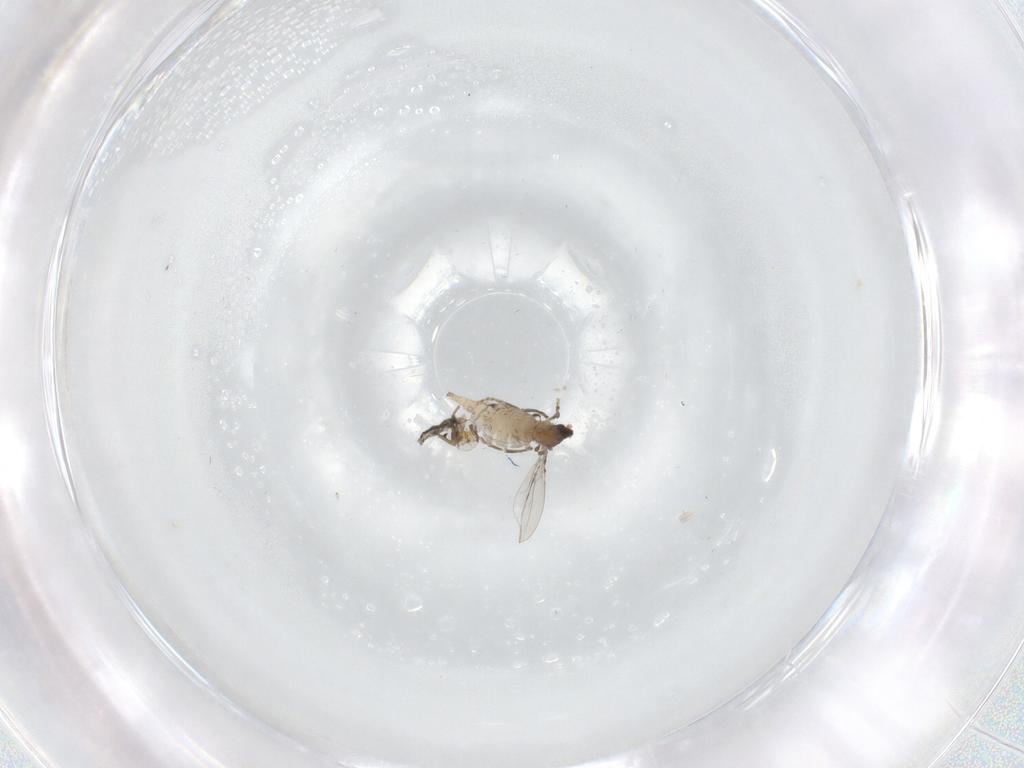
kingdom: Animalia
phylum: Arthropoda
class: Insecta
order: Diptera
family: Cecidomyiidae
